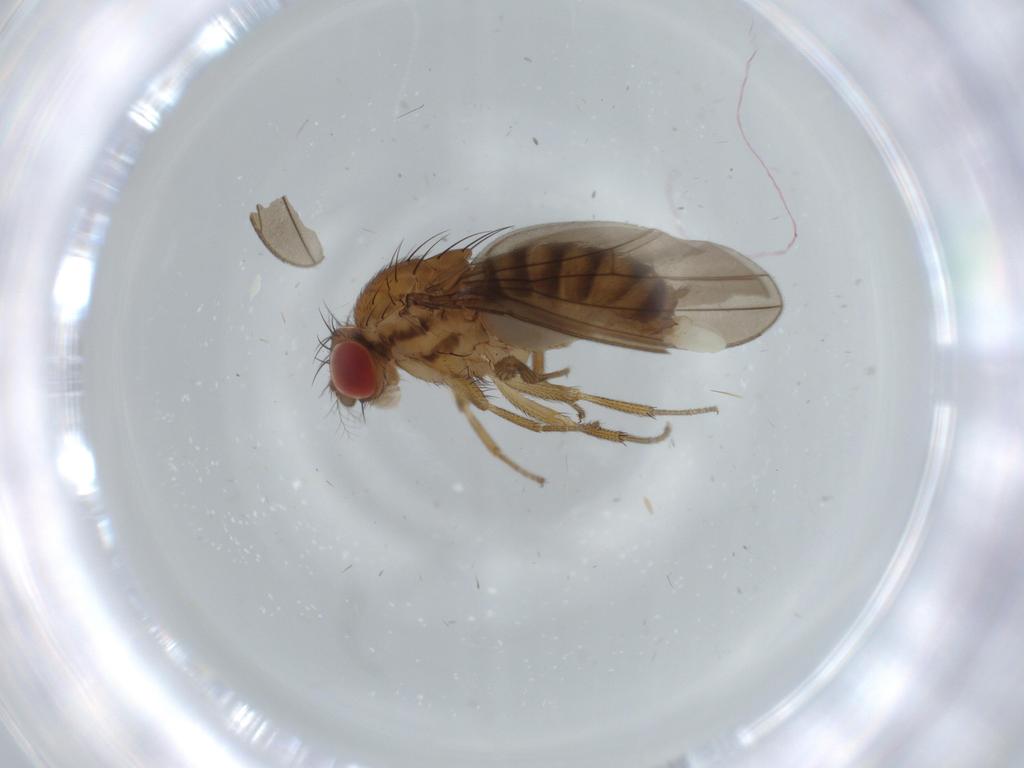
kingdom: Animalia
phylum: Arthropoda
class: Insecta
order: Diptera
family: Drosophilidae
